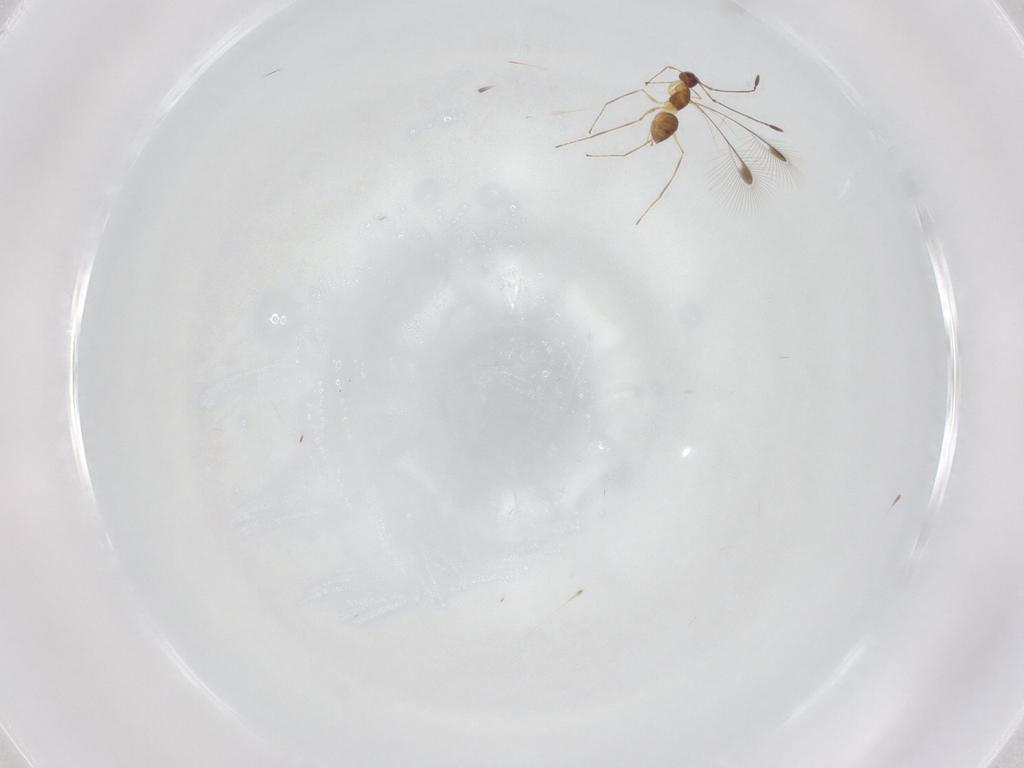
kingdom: Animalia
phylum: Arthropoda
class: Insecta
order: Hymenoptera
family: Mymaridae
